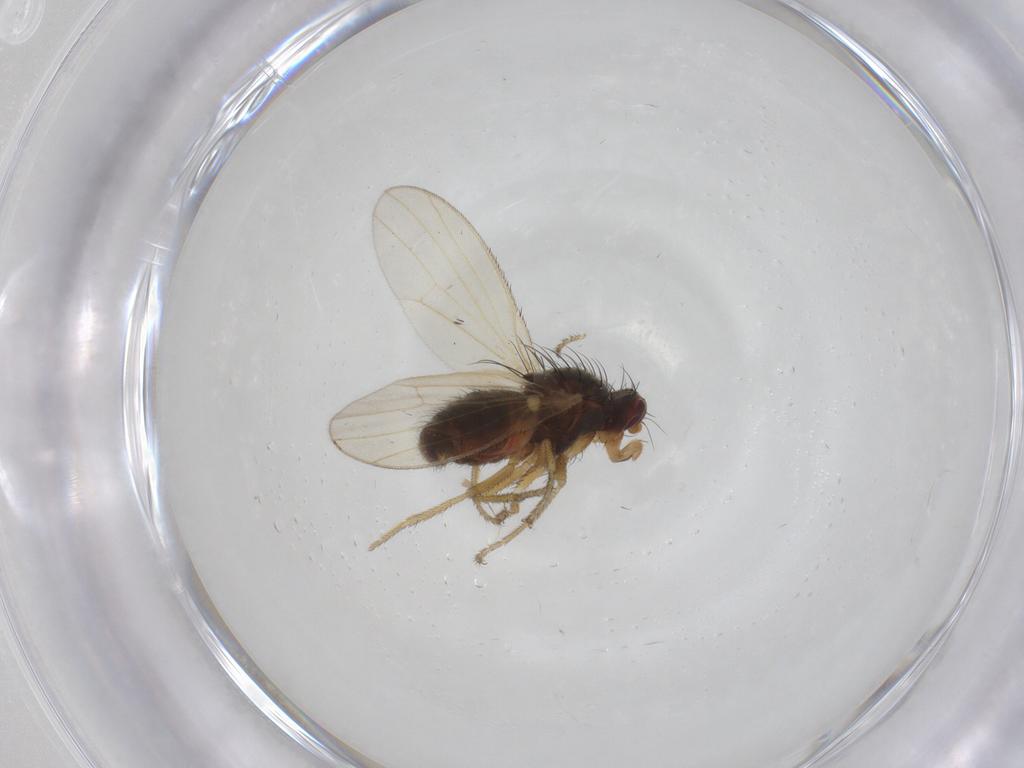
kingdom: Animalia
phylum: Arthropoda
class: Insecta
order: Diptera
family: Heleomyzidae
